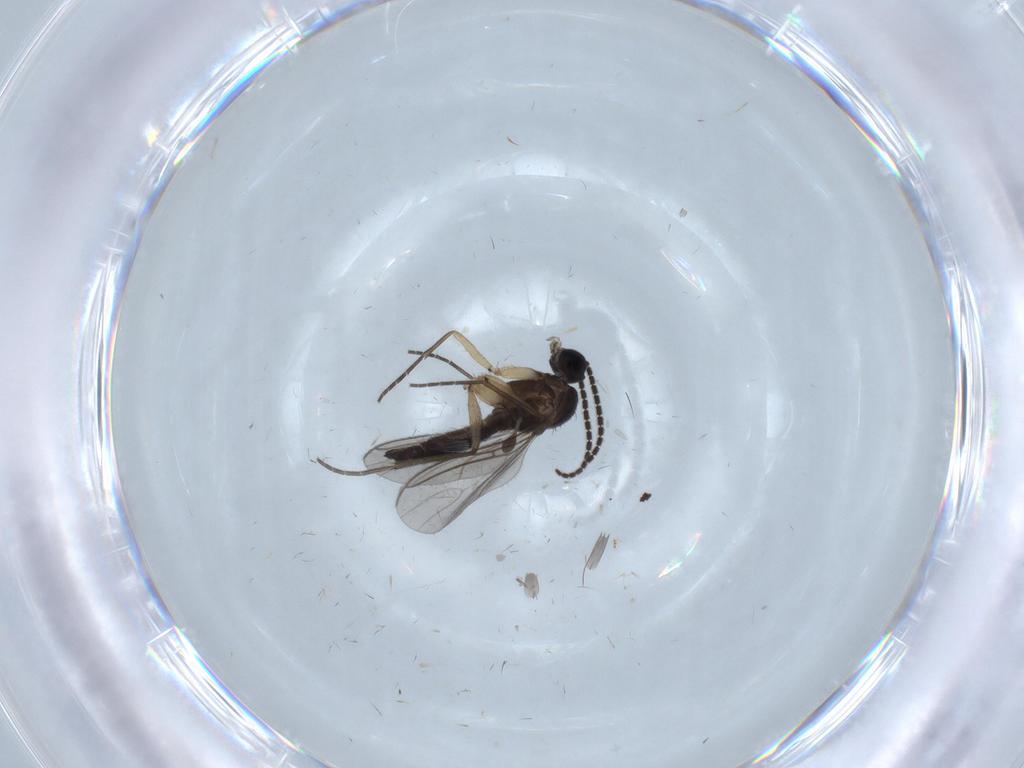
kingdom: Animalia
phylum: Arthropoda
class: Insecta
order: Diptera
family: Sciaridae
